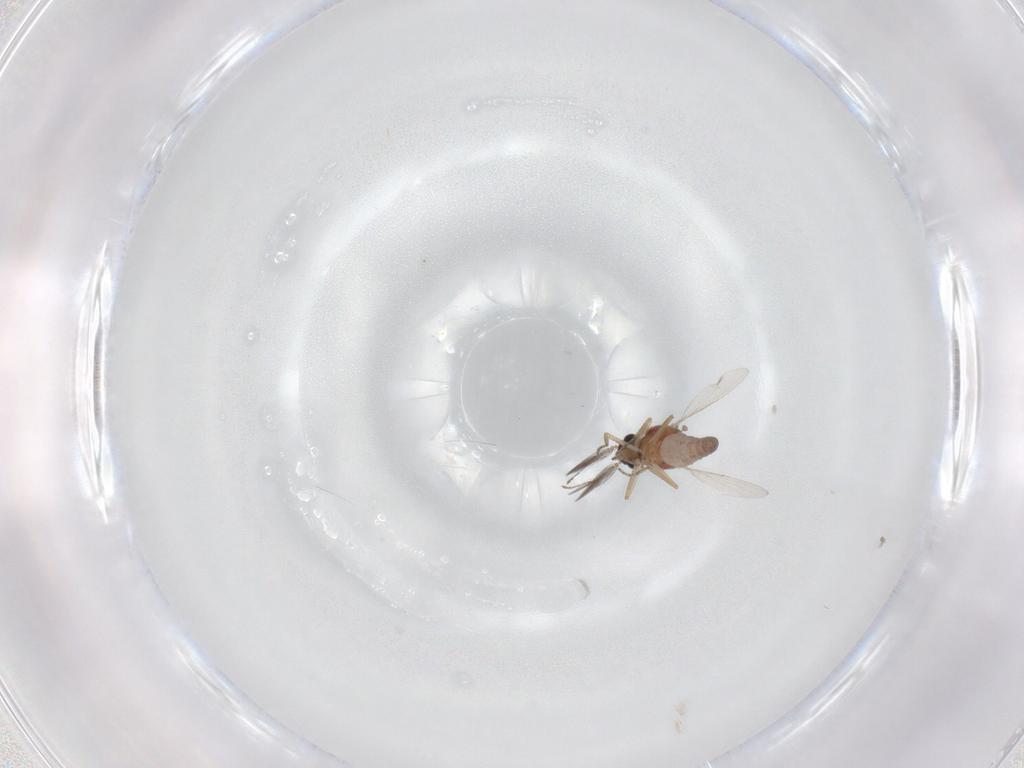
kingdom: Animalia
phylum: Arthropoda
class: Insecta
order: Diptera
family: Ceratopogonidae
